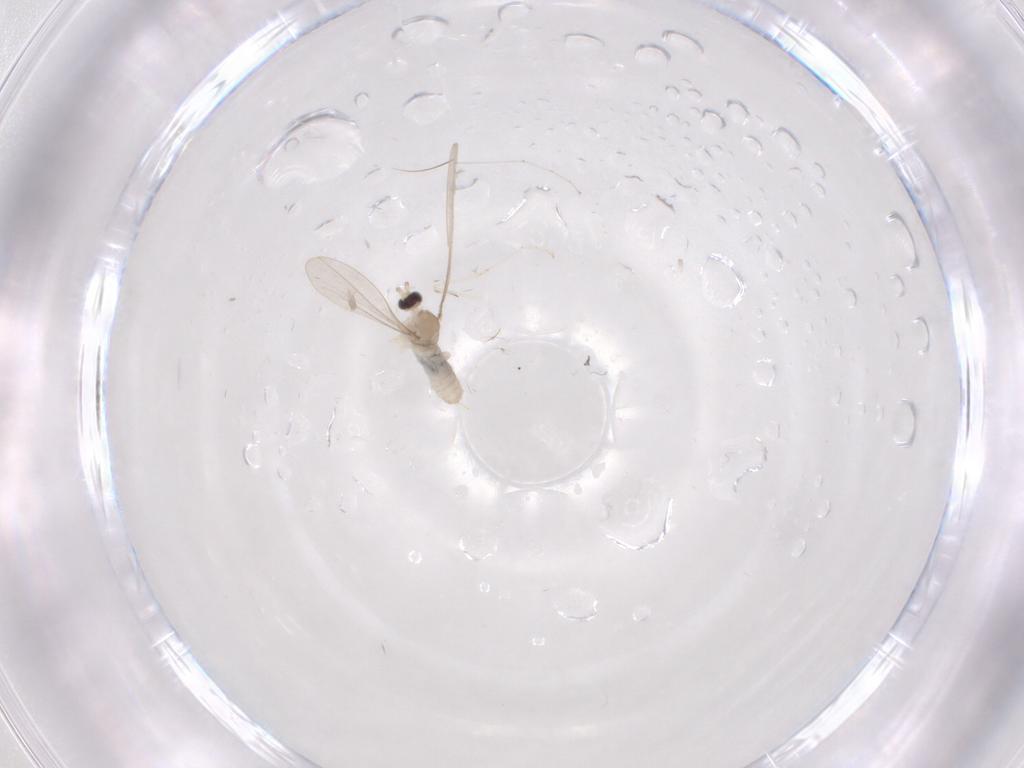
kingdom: Animalia
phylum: Arthropoda
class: Insecta
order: Diptera
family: Cecidomyiidae
